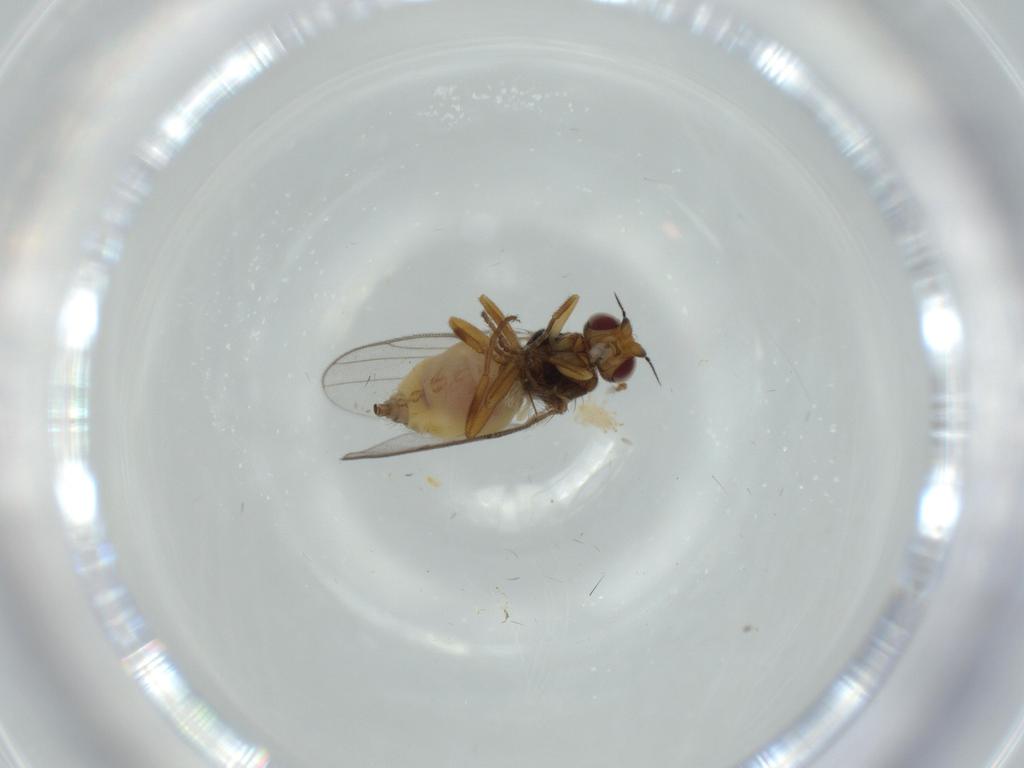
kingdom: Animalia
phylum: Arthropoda
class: Insecta
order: Diptera
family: Chloropidae
